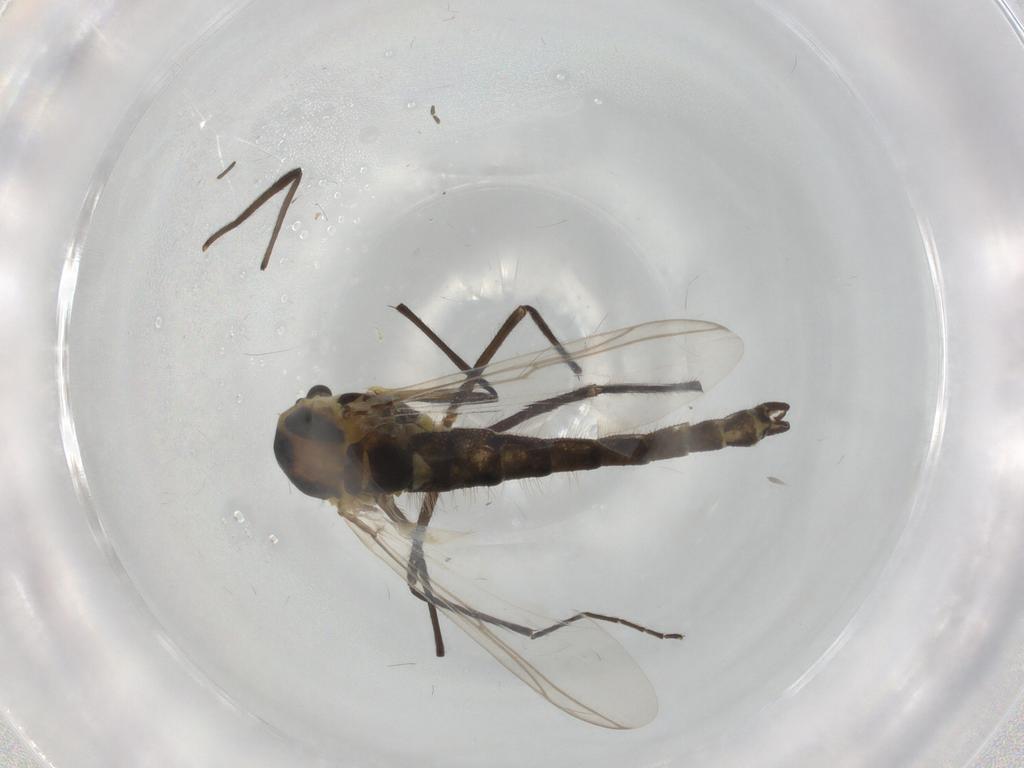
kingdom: Animalia
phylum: Arthropoda
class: Insecta
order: Diptera
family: Chironomidae
